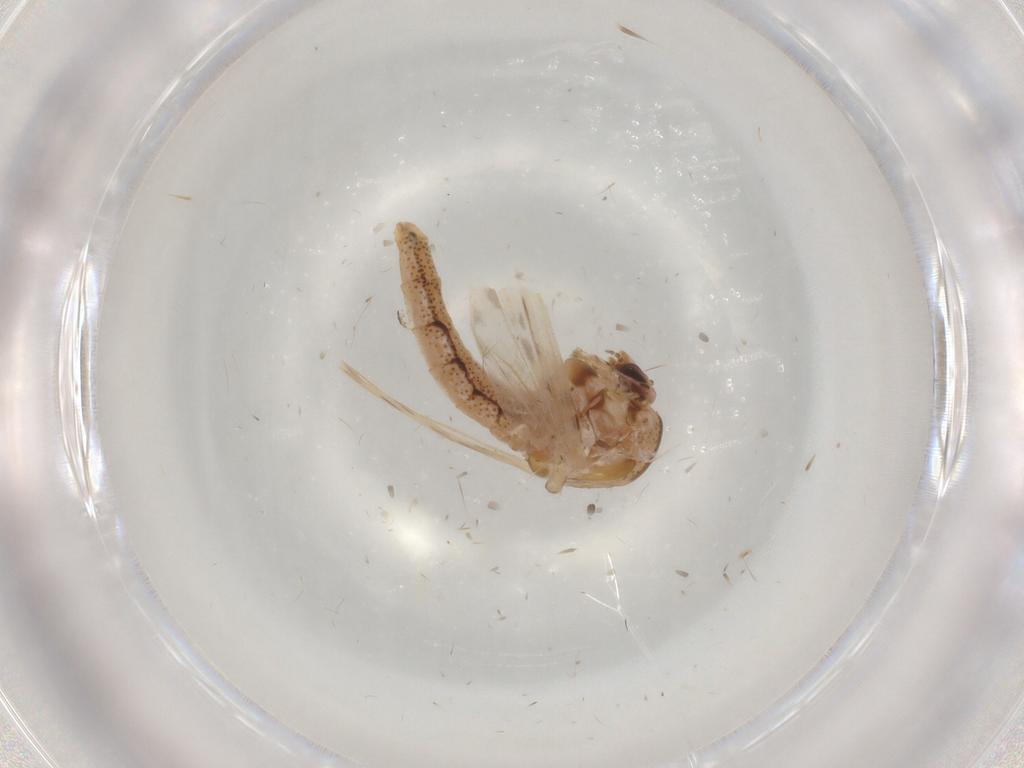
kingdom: Animalia
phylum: Arthropoda
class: Insecta
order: Diptera
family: Chaoboridae
